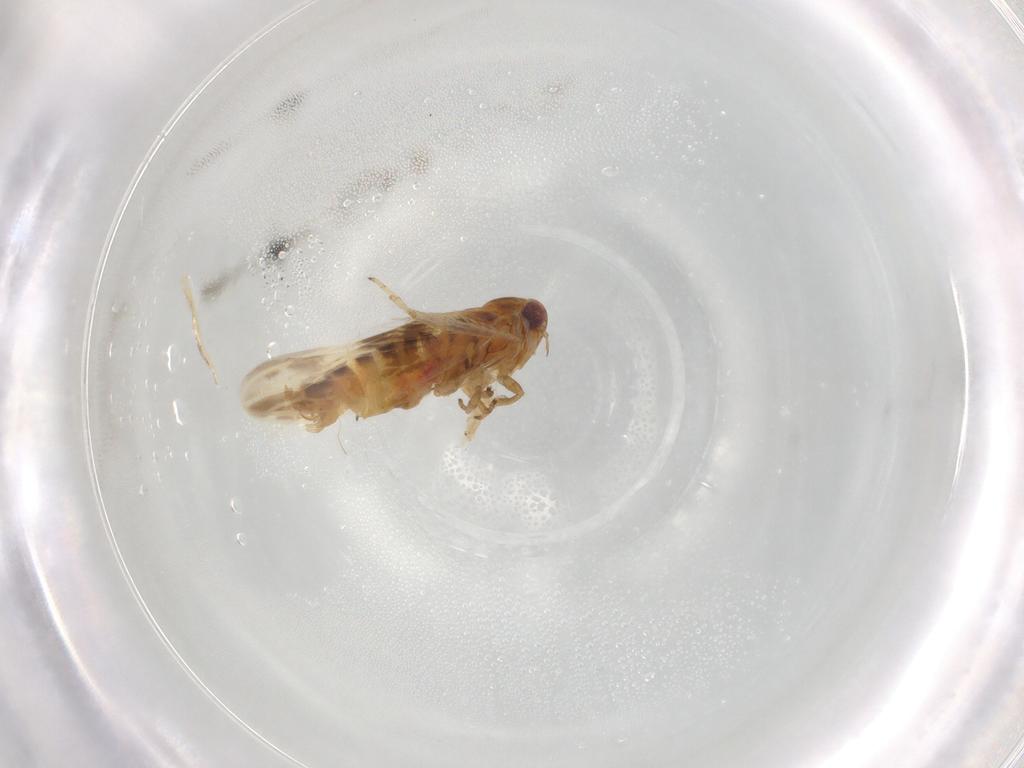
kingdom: Animalia
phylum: Arthropoda
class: Insecta
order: Hemiptera
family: Cicadellidae
